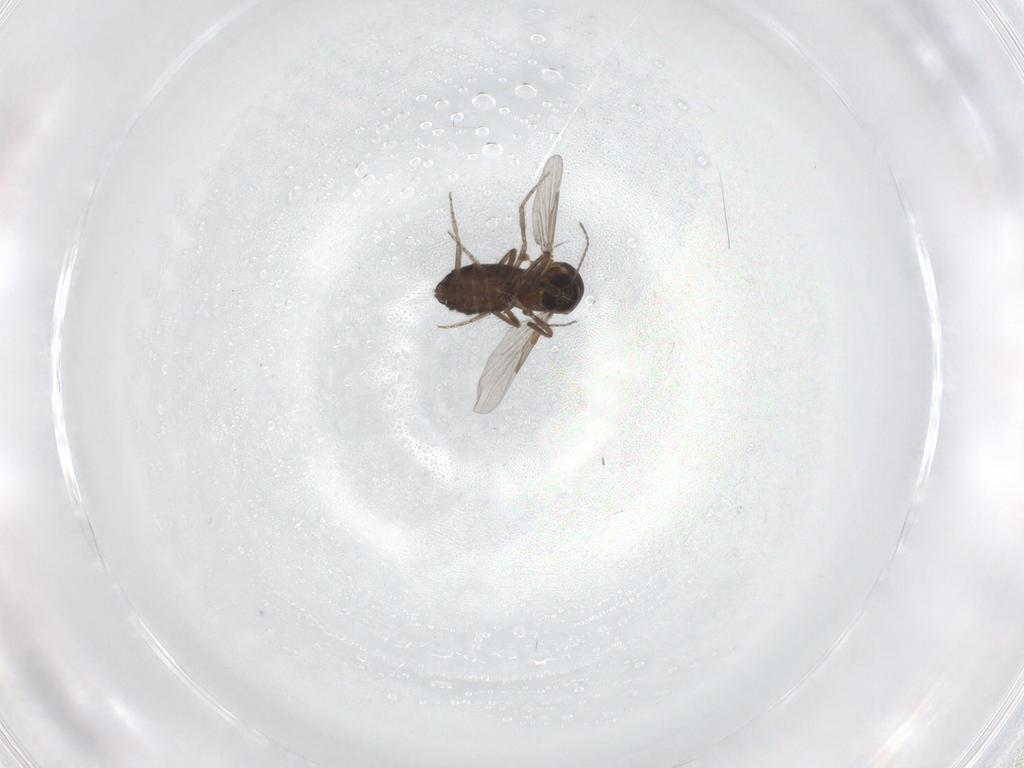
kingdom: Animalia
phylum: Arthropoda
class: Insecta
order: Diptera
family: Ceratopogonidae
